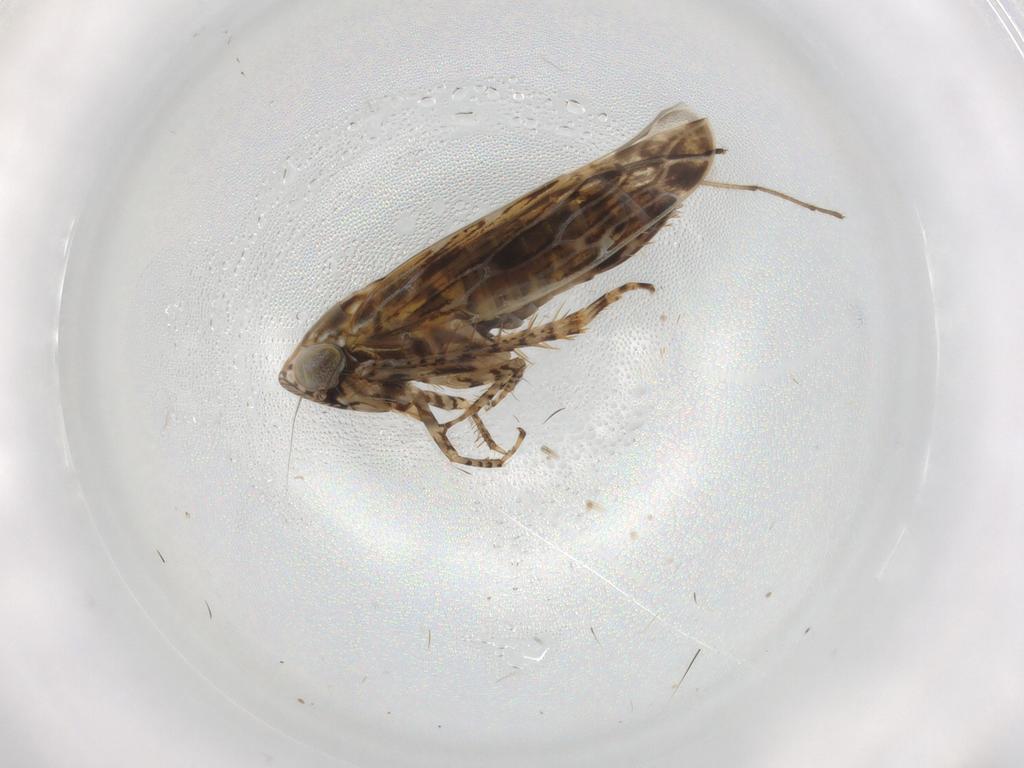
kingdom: Animalia
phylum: Arthropoda
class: Insecta
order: Hemiptera
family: Cicadellidae
